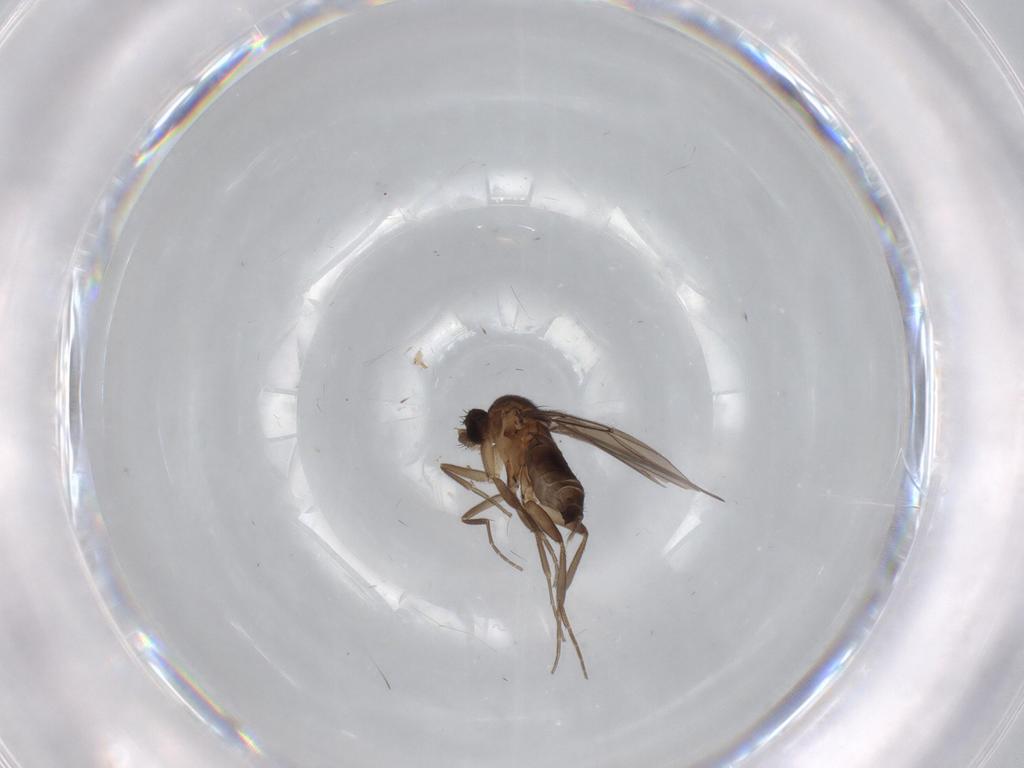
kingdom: Animalia
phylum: Arthropoda
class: Insecta
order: Diptera
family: Phoridae
